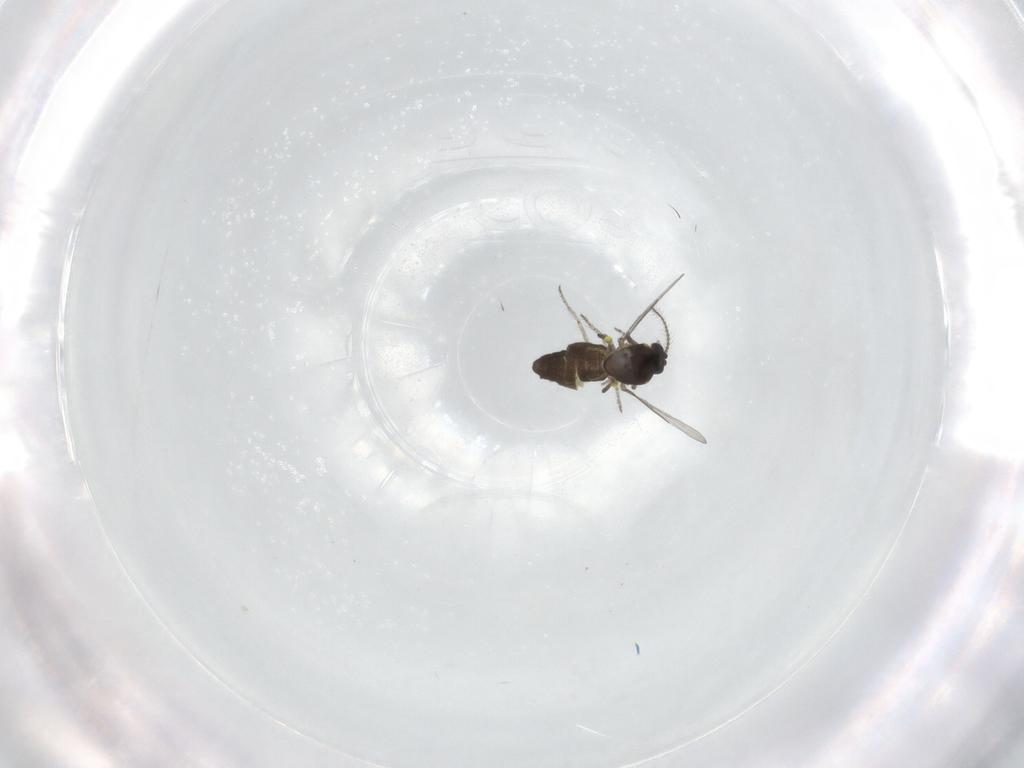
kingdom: Animalia
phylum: Arthropoda
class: Insecta
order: Diptera
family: Ceratopogonidae
